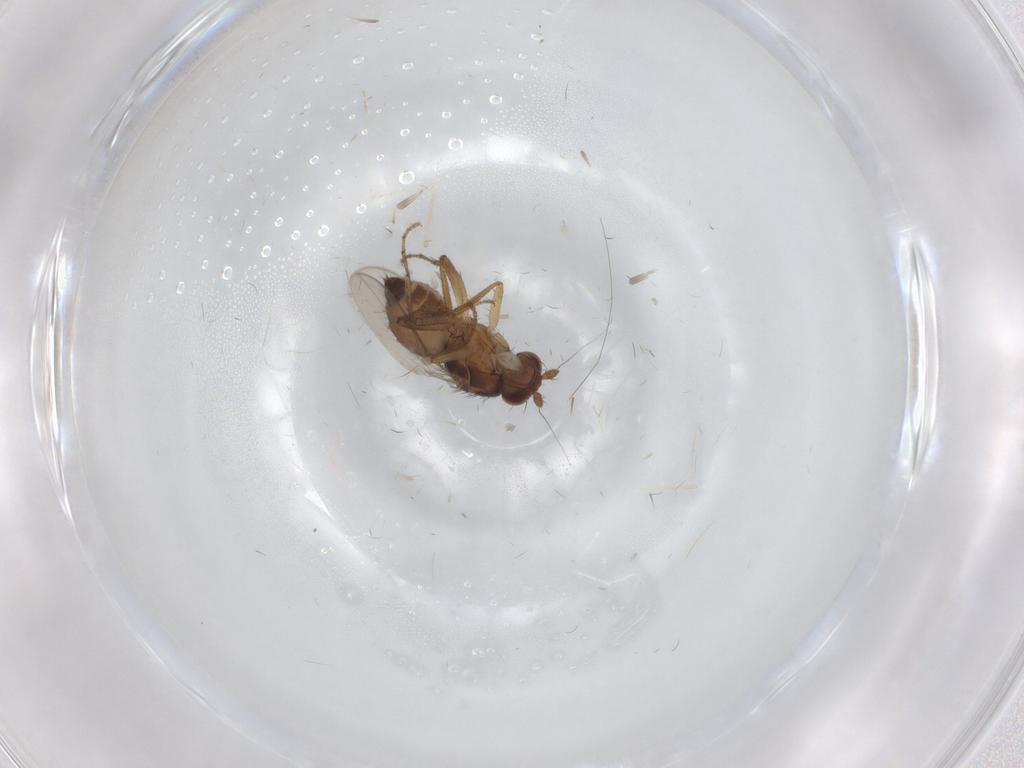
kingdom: Animalia
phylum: Arthropoda
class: Insecta
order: Diptera
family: Sphaeroceridae
